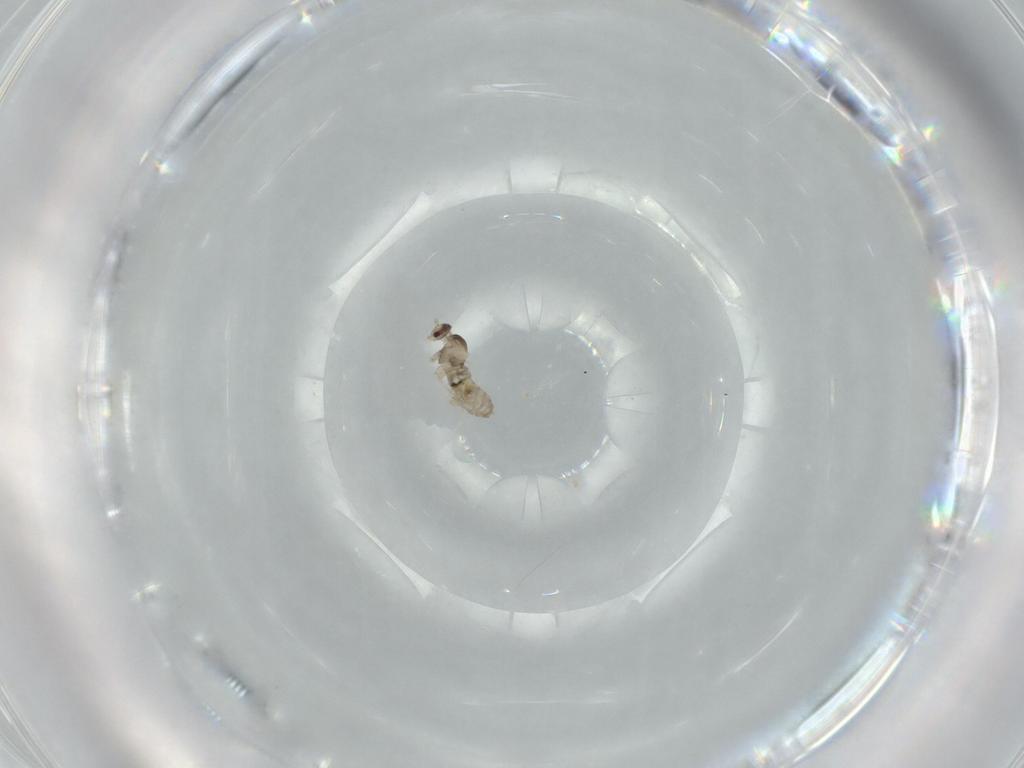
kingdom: Animalia
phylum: Arthropoda
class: Insecta
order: Diptera
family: Cecidomyiidae
